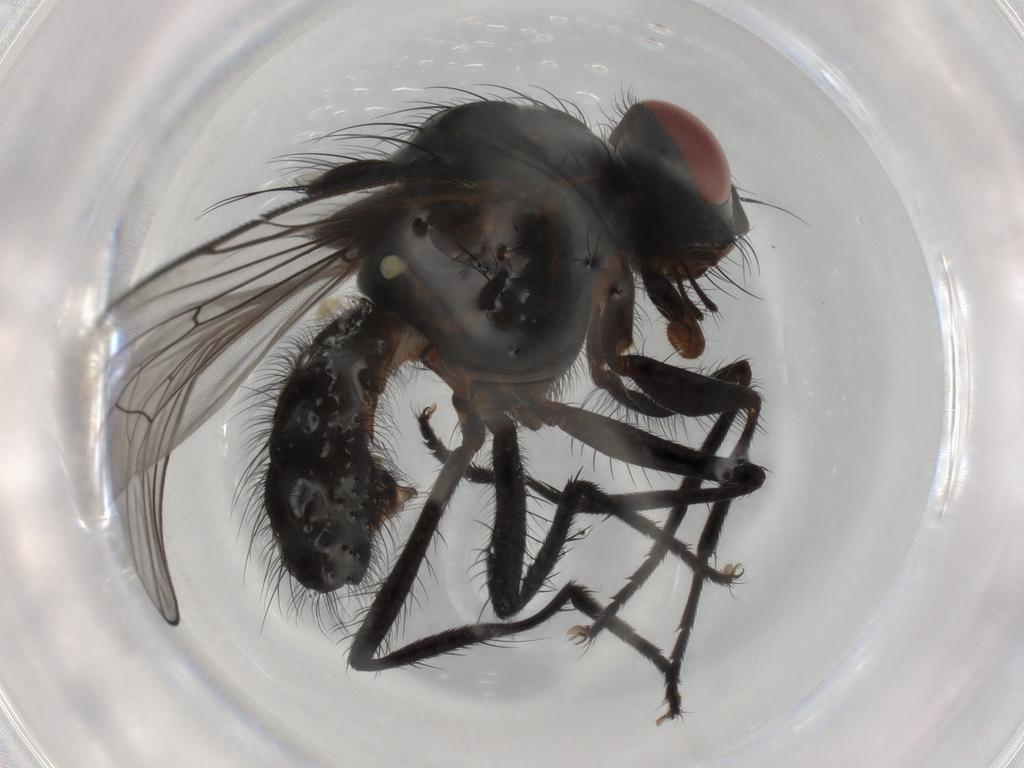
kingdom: Animalia
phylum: Arthropoda
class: Insecta
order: Diptera
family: Anthomyiidae
